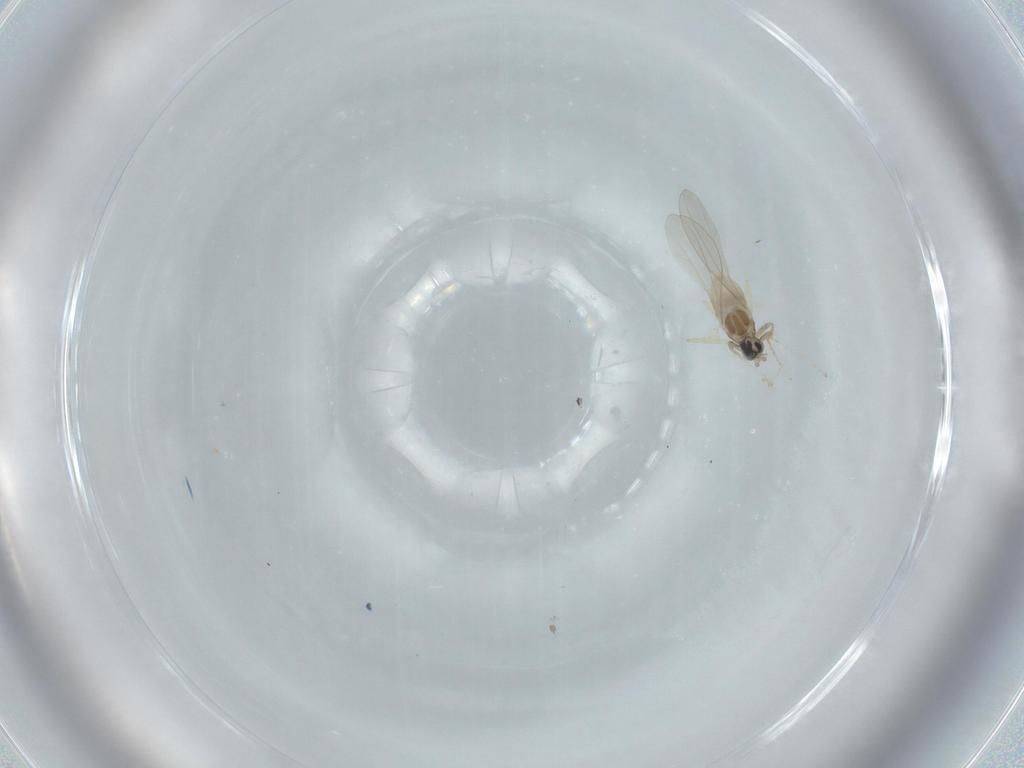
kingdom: Animalia
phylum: Arthropoda
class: Insecta
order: Diptera
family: Cecidomyiidae
